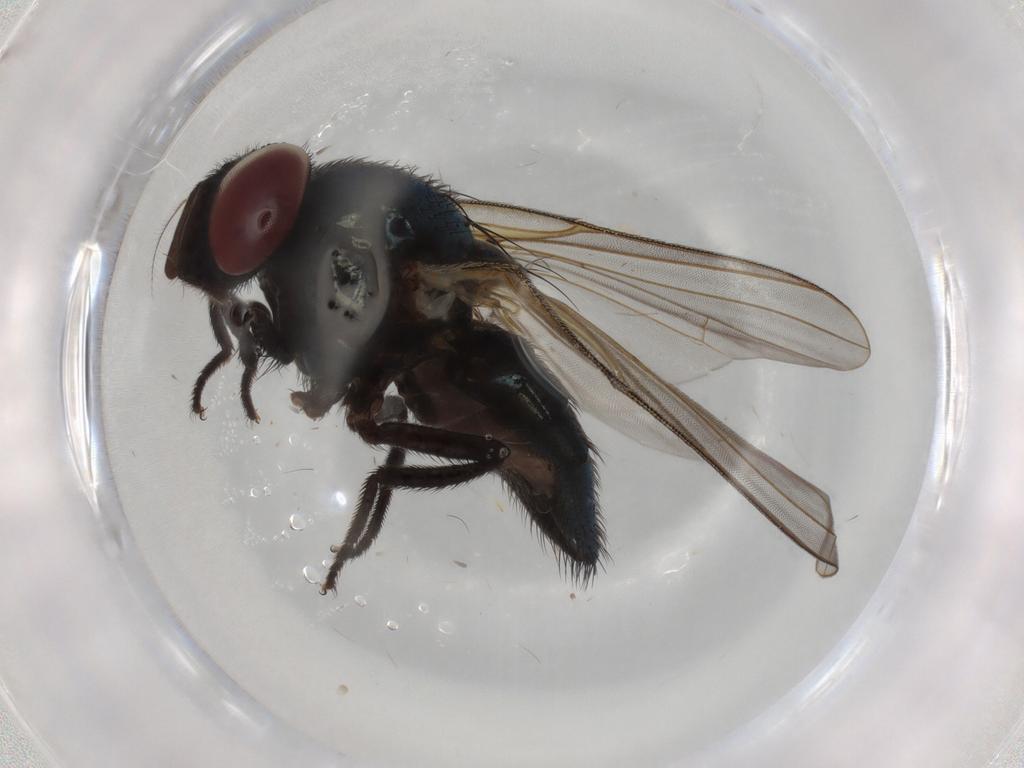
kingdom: Animalia
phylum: Arthropoda
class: Insecta
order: Diptera
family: Lonchaeidae
